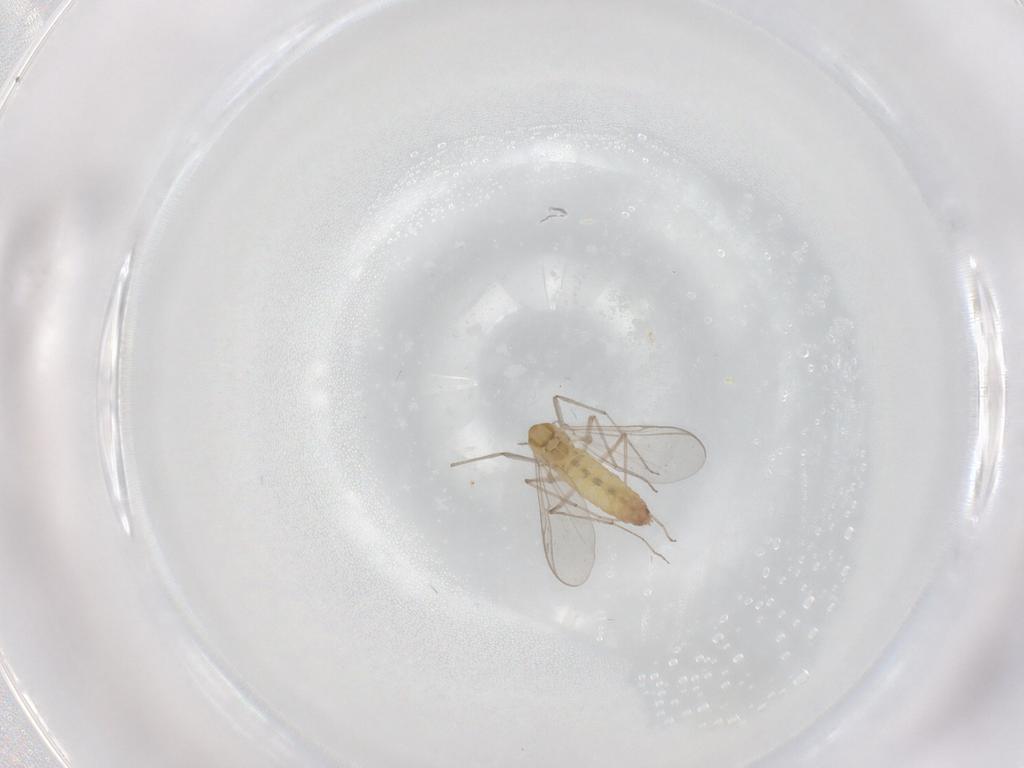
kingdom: Animalia
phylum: Arthropoda
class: Insecta
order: Diptera
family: Chironomidae
